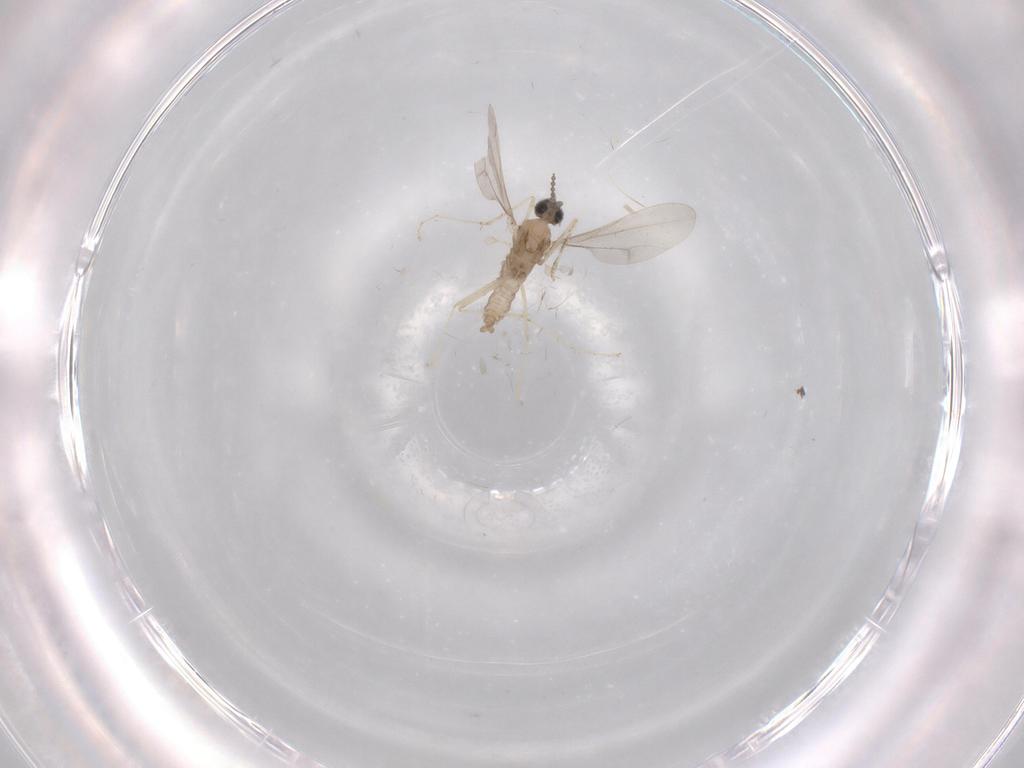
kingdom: Animalia
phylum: Arthropoda
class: Insecta
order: Diptera
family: Cecidomyiidae
